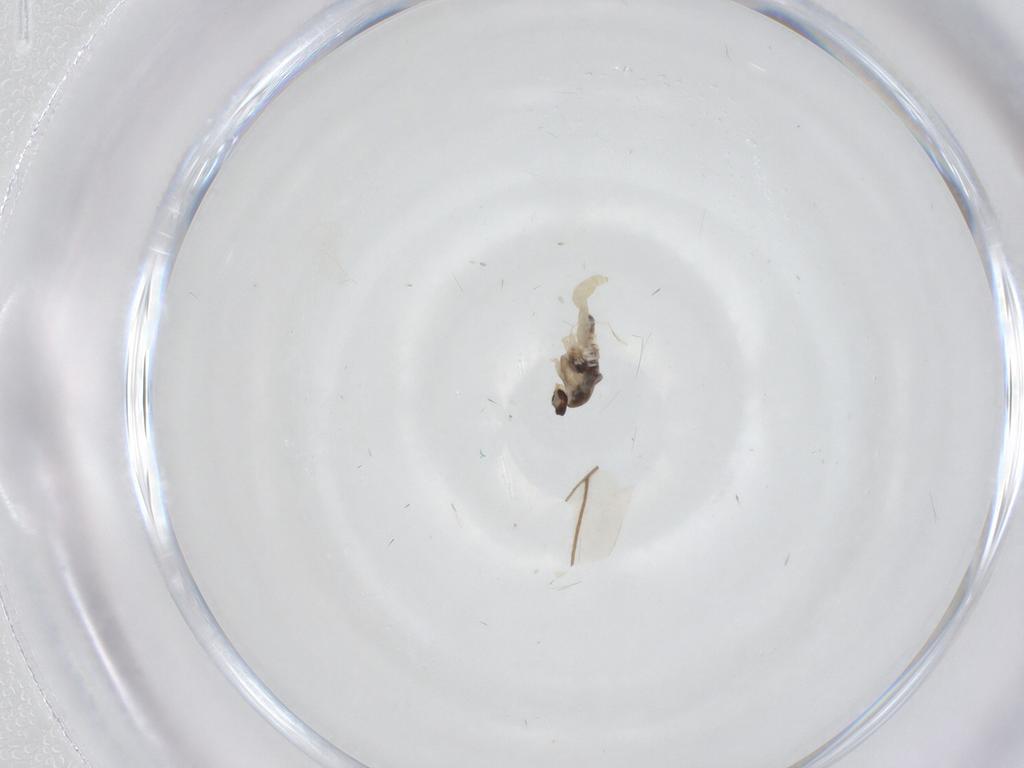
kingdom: Animalia
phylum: Arthropoda
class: Insecta
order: Diptera
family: Cecidomyiidae
